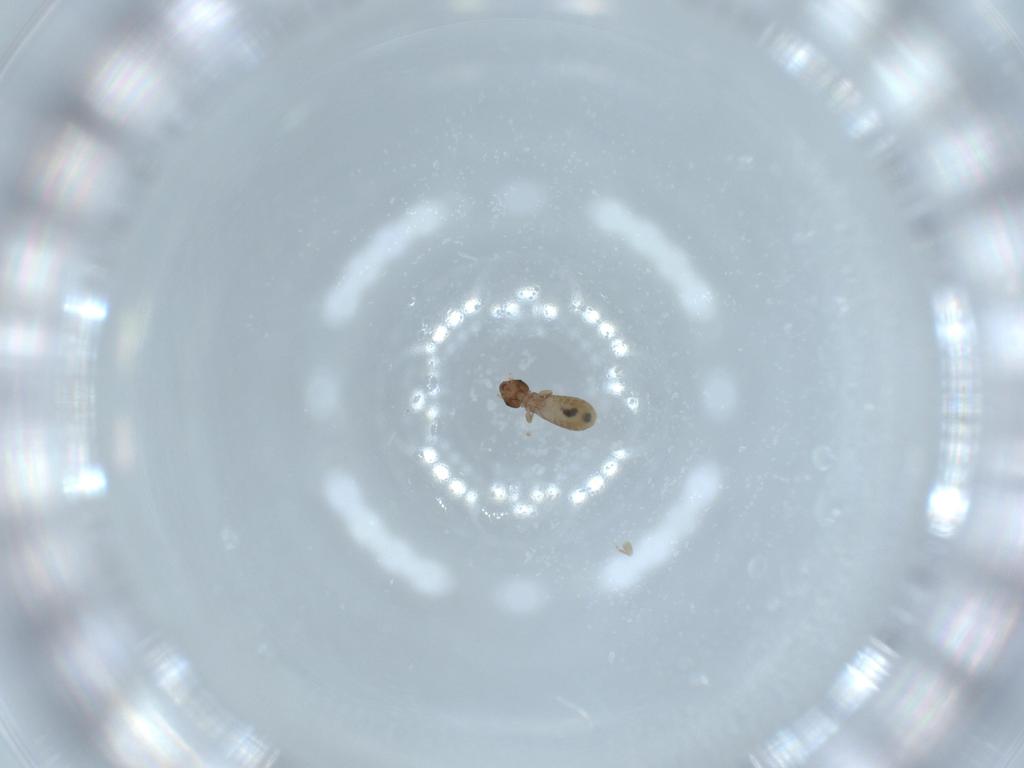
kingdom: Animalia
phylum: Arthropoda
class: Insecta
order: Psocodea
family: Liposcelididae
